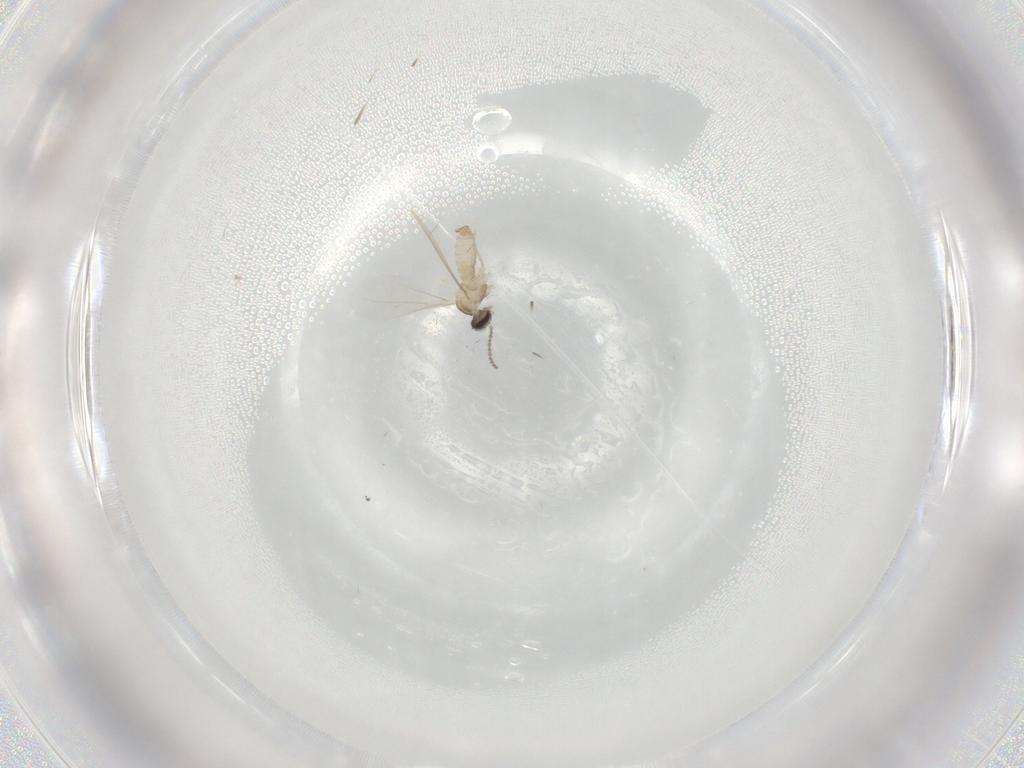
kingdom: Animalia
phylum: Arthropoda
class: Insecta
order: Diptera
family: Cecidomyiidae
